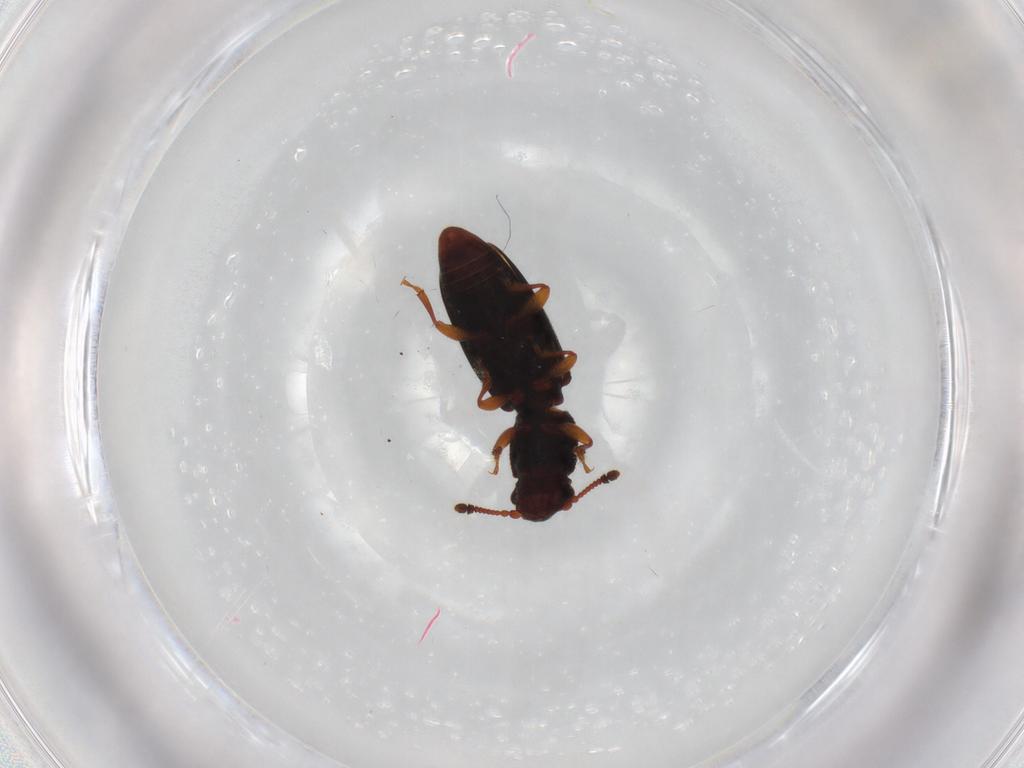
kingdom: Animalia
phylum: Arthropoda
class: Insecta
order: Coleoptera
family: Monotomidae
